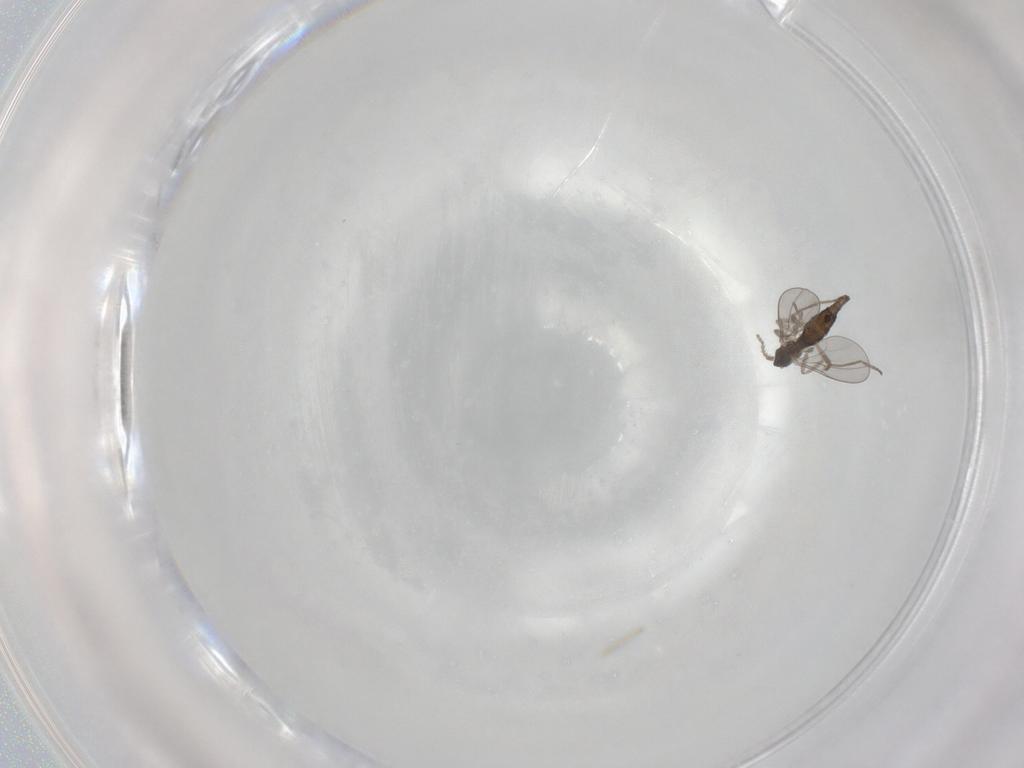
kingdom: Animalia
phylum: Arthropoda
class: Insecta
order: Diptera
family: Cecidomyiidae
